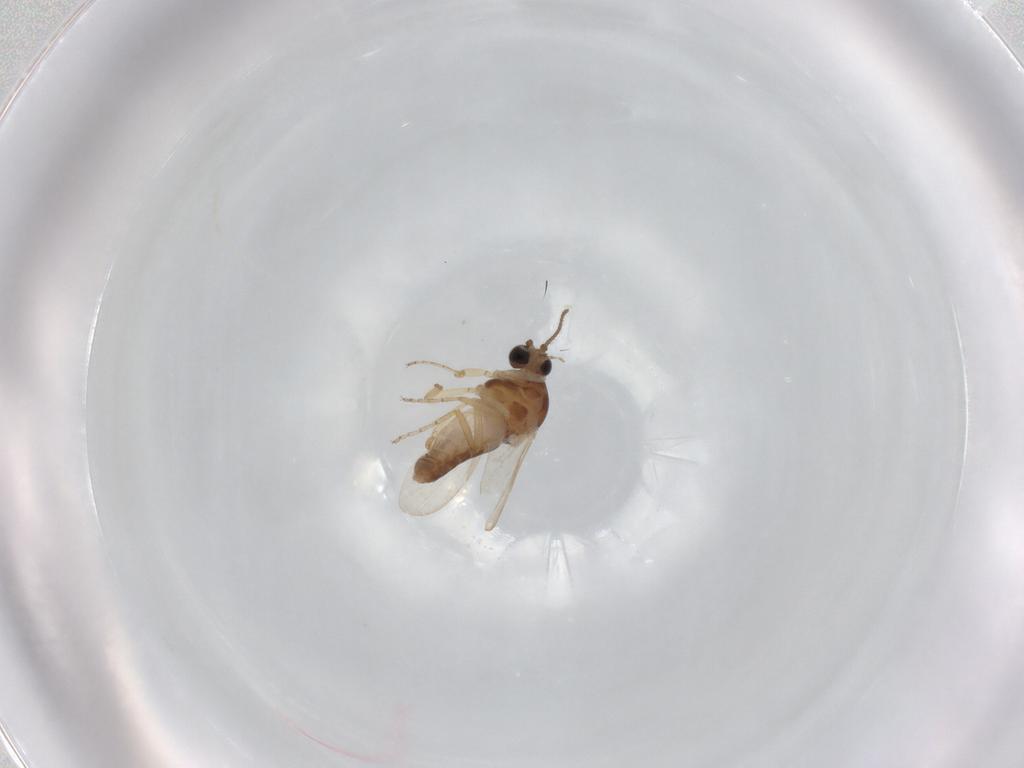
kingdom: Animalia
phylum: Arthropoda
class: Insecta
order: Diptera
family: Ceratopogonidae
